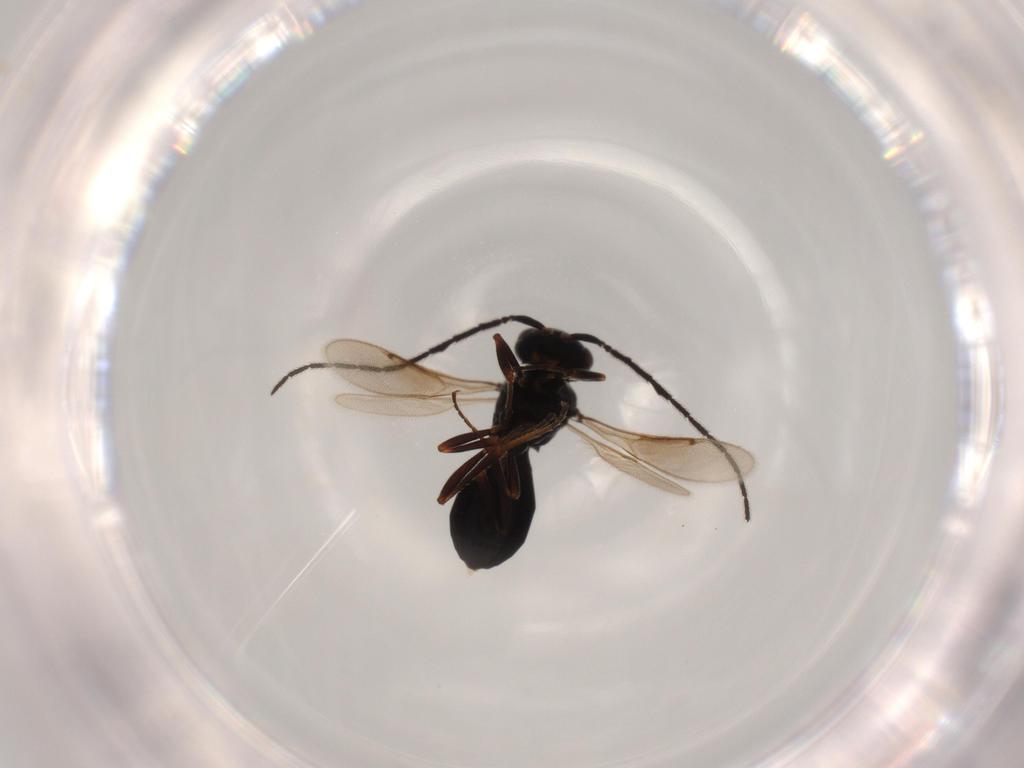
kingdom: Animalia
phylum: Arthropoda
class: Insecta
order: Hymenoptera
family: Scelionidae
